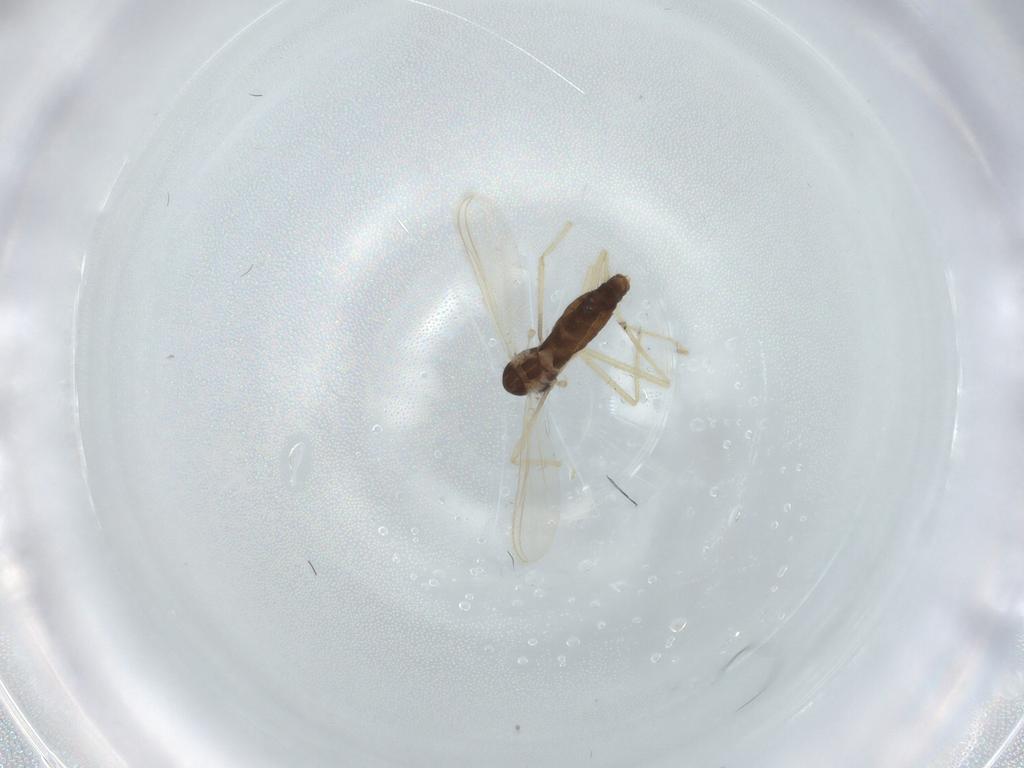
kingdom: Animalia
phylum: Arthropoda
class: Insecta
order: Diptera
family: Chironomidae
